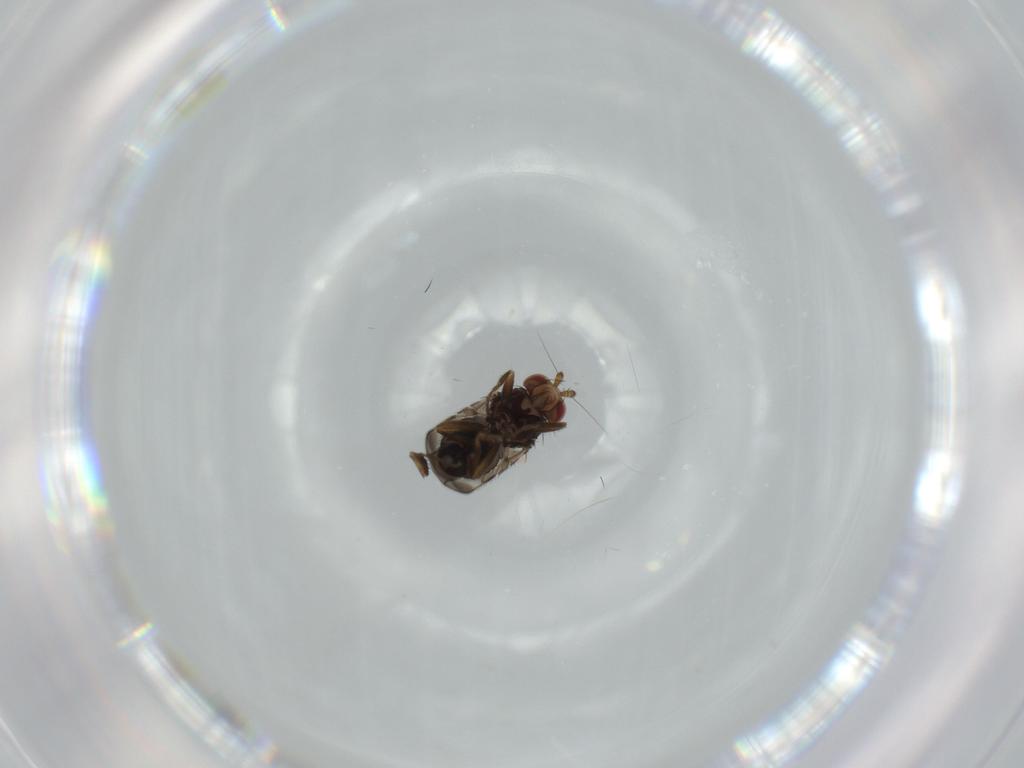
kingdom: Animalia
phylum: Arthropoda
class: Insecta
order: Diptera
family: Sphaeroceridae
